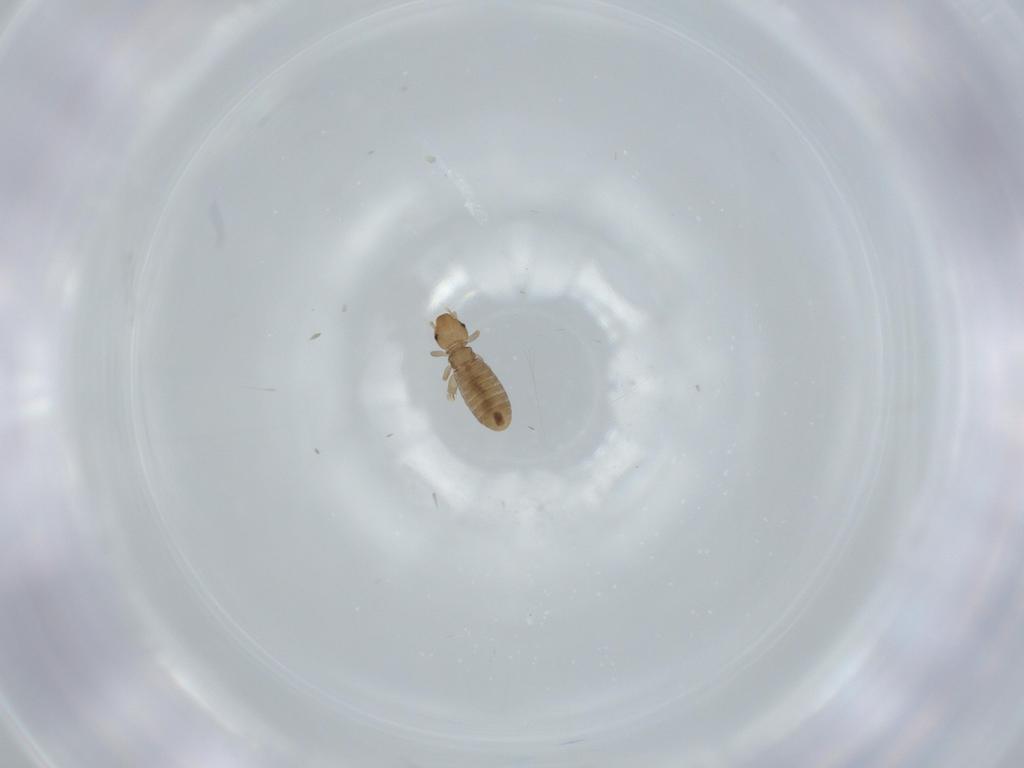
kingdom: Animalia
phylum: Arthropoda
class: Insecta
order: Psocodea
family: Liposcelididae
